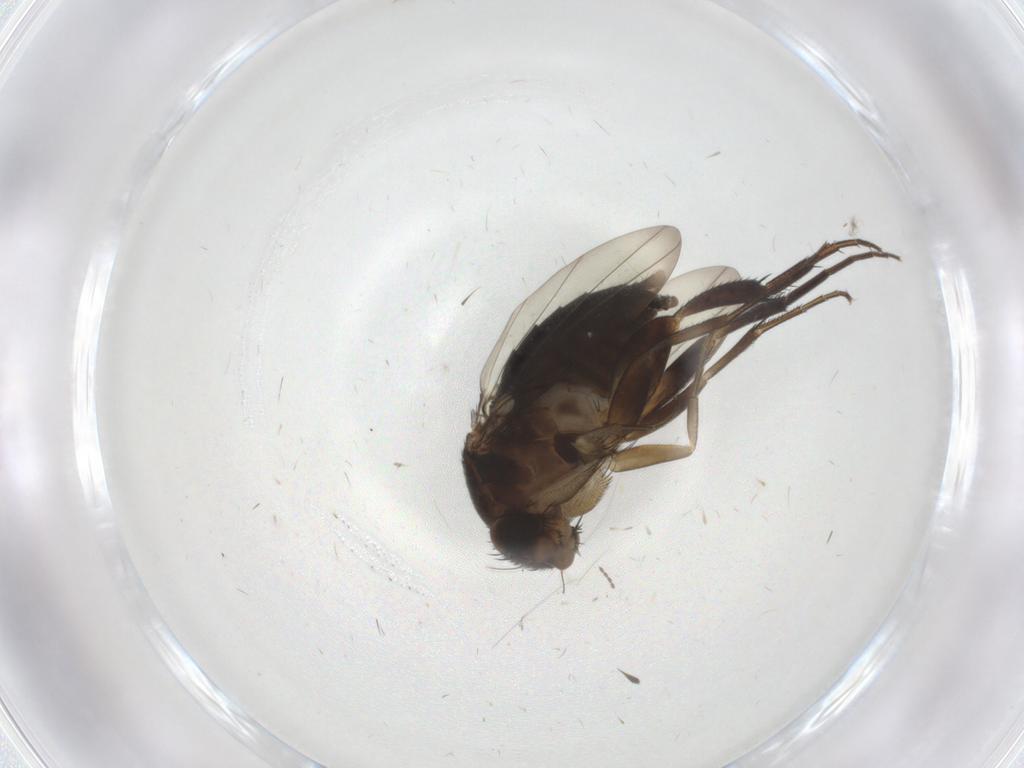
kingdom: Animalia
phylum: Arthropoda
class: Insecta
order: Diptera
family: Phoridae
